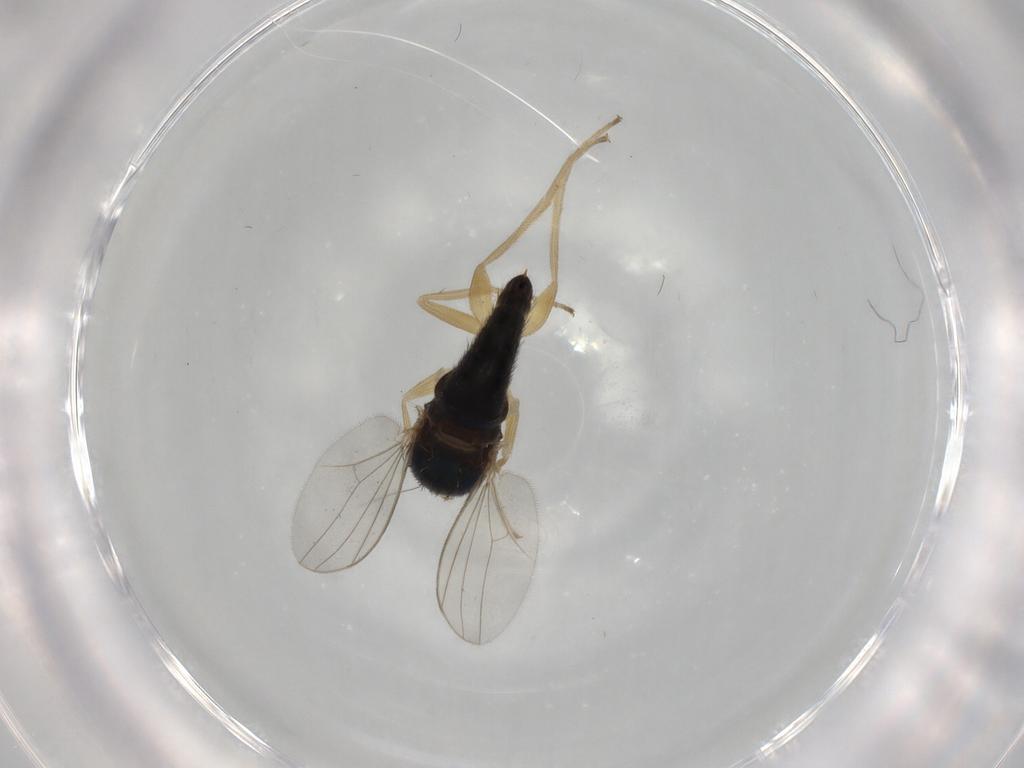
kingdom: Animalia
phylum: Arthropoda
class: Insecta
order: Diptera
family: Dolichopodidae
